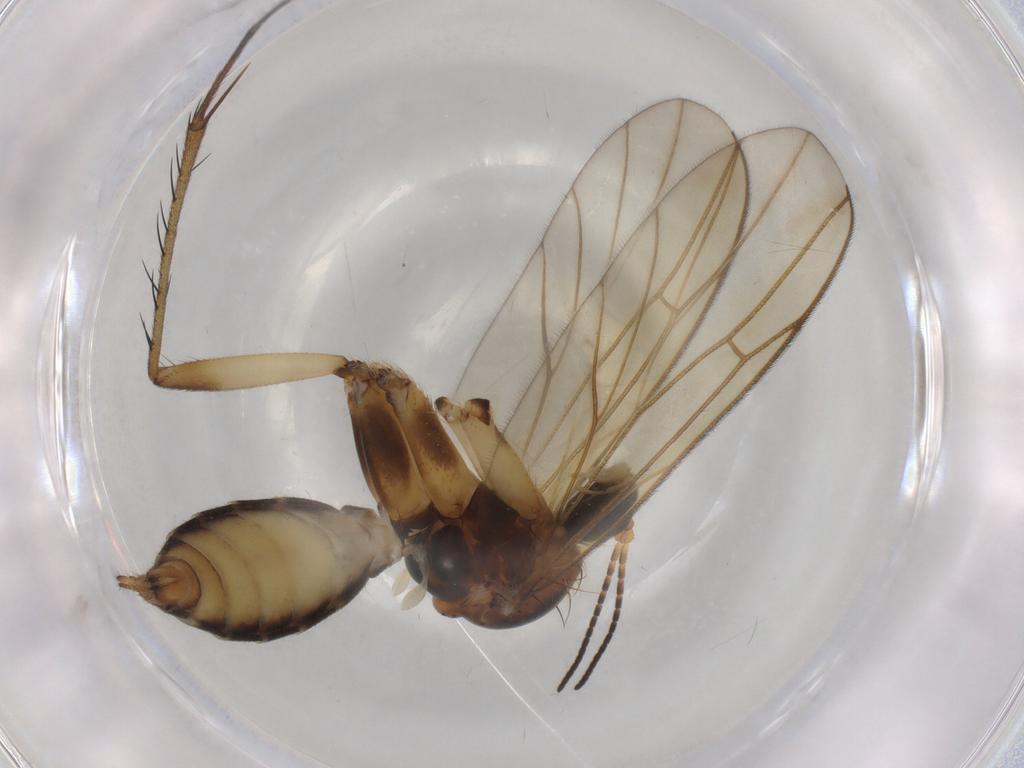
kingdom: Animalia
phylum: Arthropoda
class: Insecta
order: Diptera
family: Mycetophilidae
